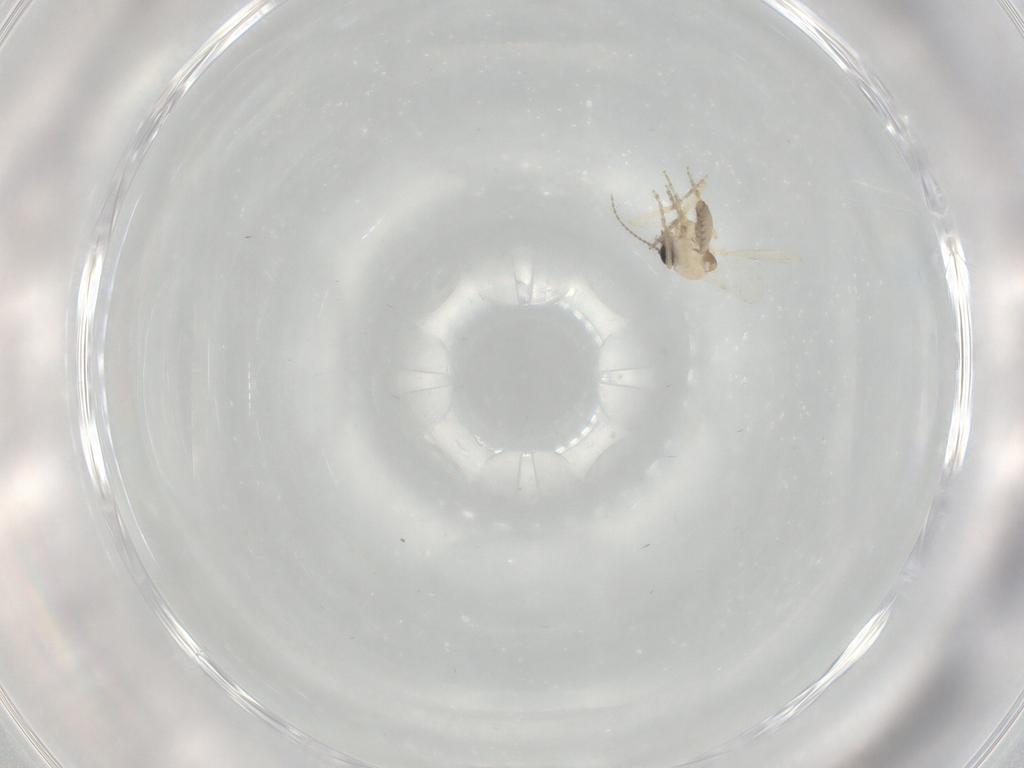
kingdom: Animalia
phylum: Arthropoda
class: Insecta
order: Diptera
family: Ceratopogonidae
